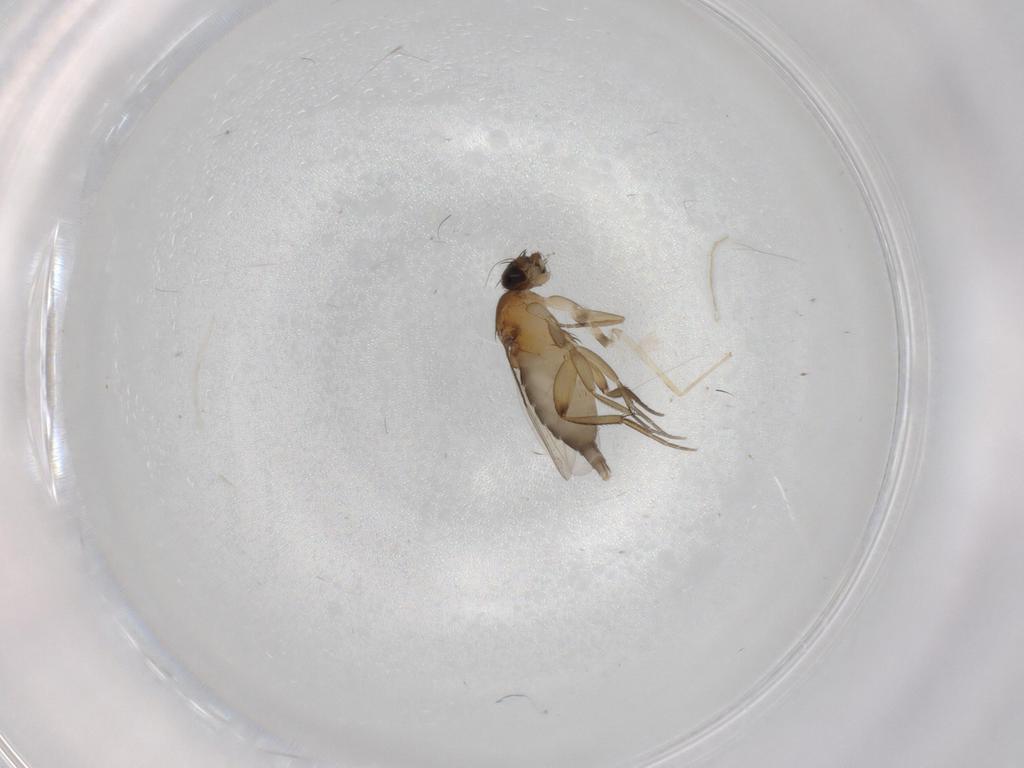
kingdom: Animalia
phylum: Arthropoda
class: Insecta
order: Diptera
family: Phoridae
